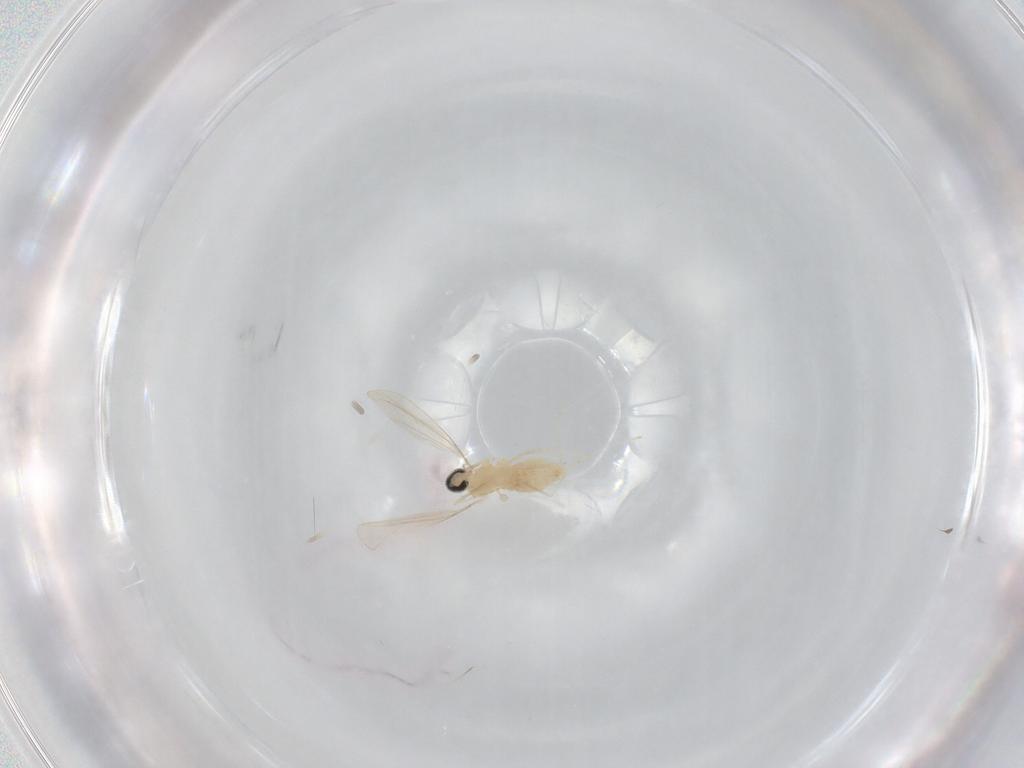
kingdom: Animalia
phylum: Arthropoda
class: Insecta
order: Diptera
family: Cecidomyiidae
